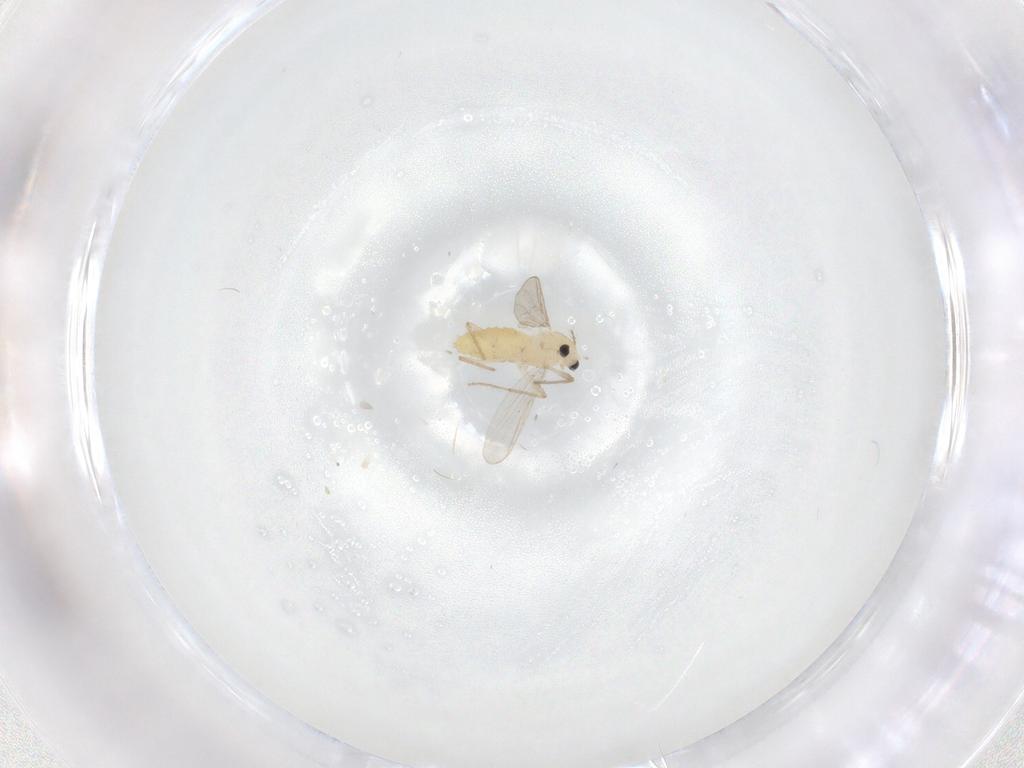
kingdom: Animalia
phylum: Arthropoda
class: Insecta
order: Diptera
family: Chironomidae
